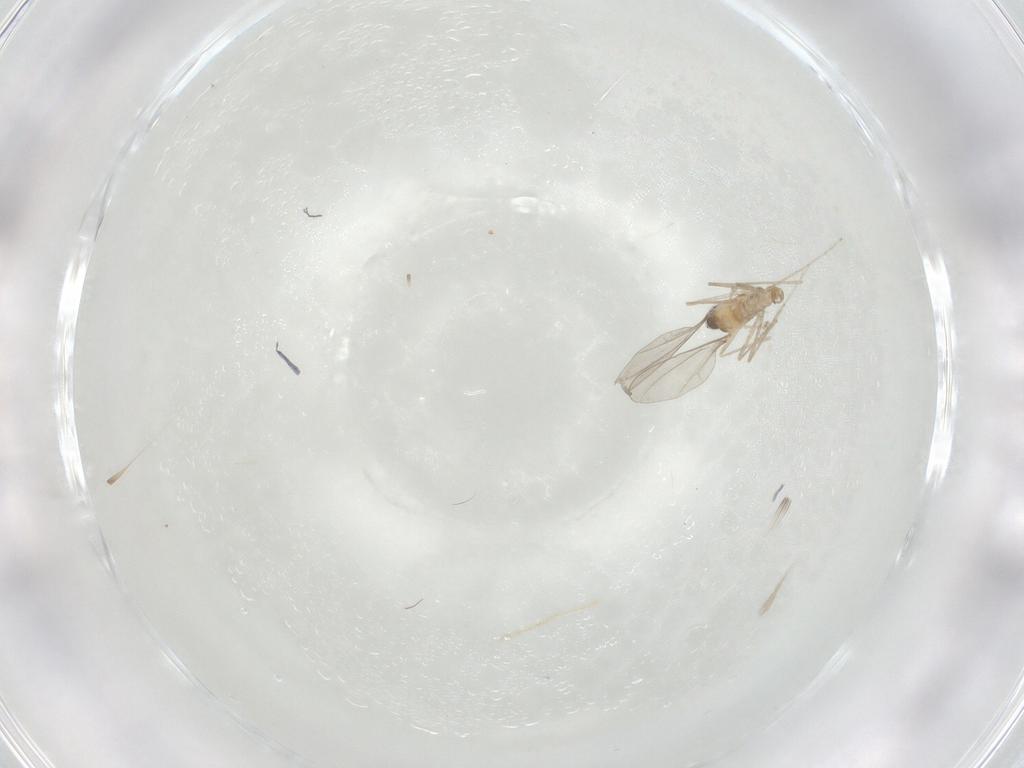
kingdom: Animalia
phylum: Arthropoda
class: Insecta
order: Diptera
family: Cecidomyiidae
